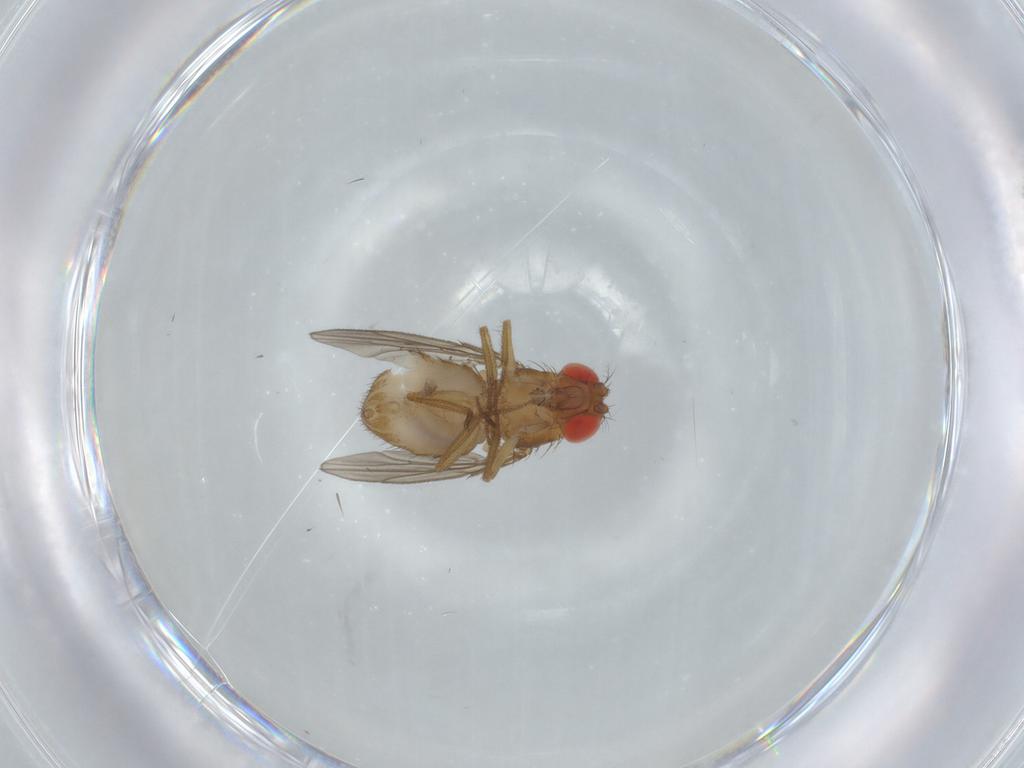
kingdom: Animalia
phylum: Arthropoda
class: Insecta
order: Diptera
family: Drosophilidae
